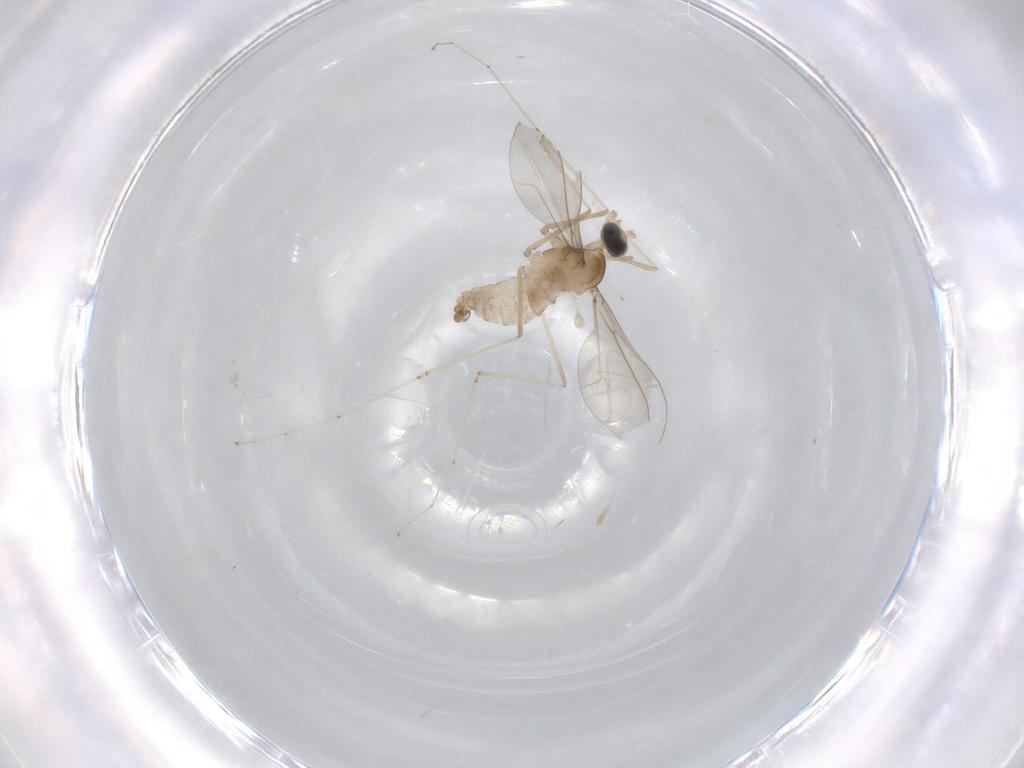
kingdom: Animalia
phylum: Arthropoda
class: Insecta
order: Diptera
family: Cecidomyiidae
